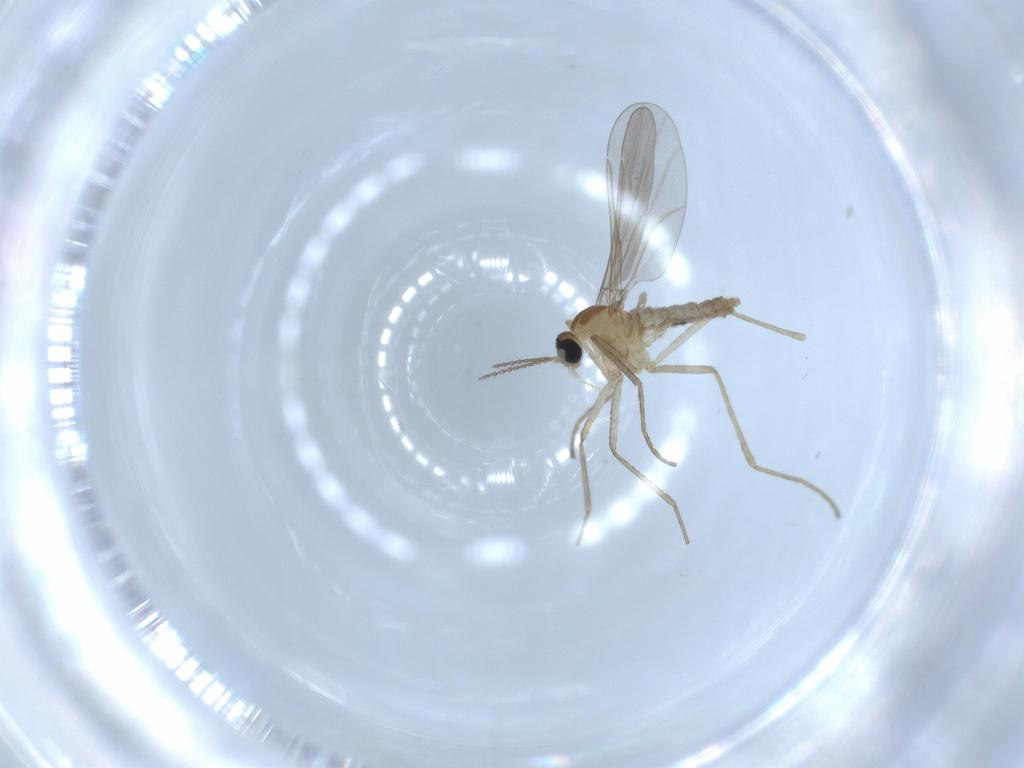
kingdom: Animalia
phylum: Arthropoda
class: Insecta
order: Diptera
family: Cecidomyiidae
